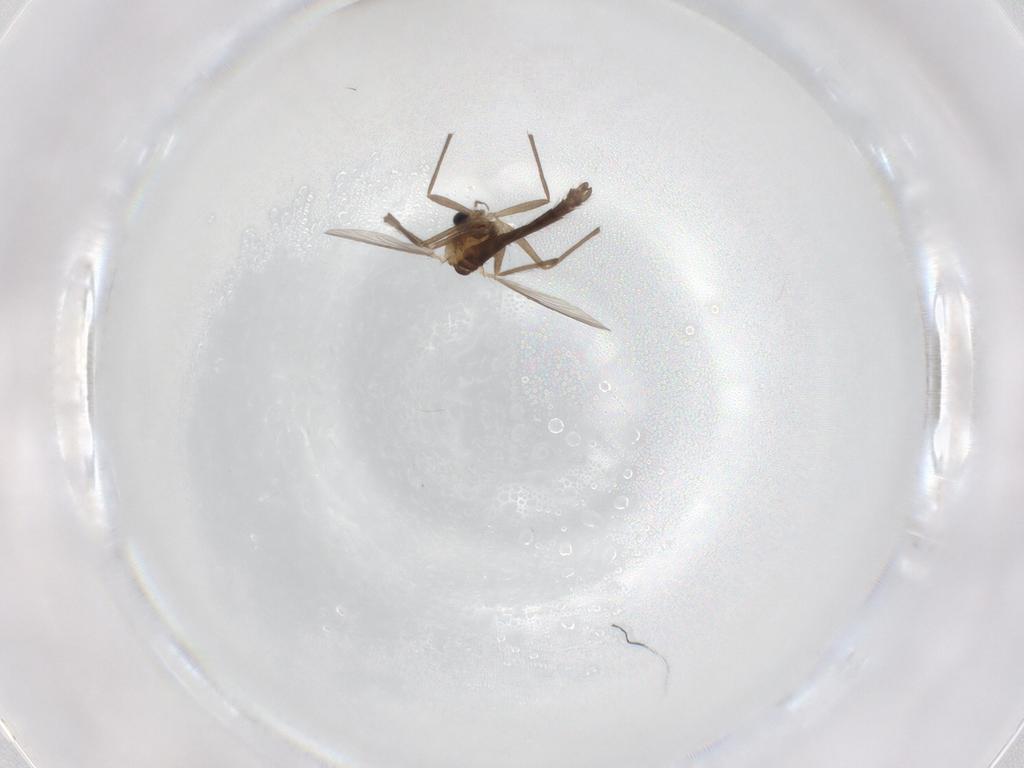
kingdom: Animalia
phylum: Arthropoda
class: Insecta
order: Diptera
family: Chironomidae
